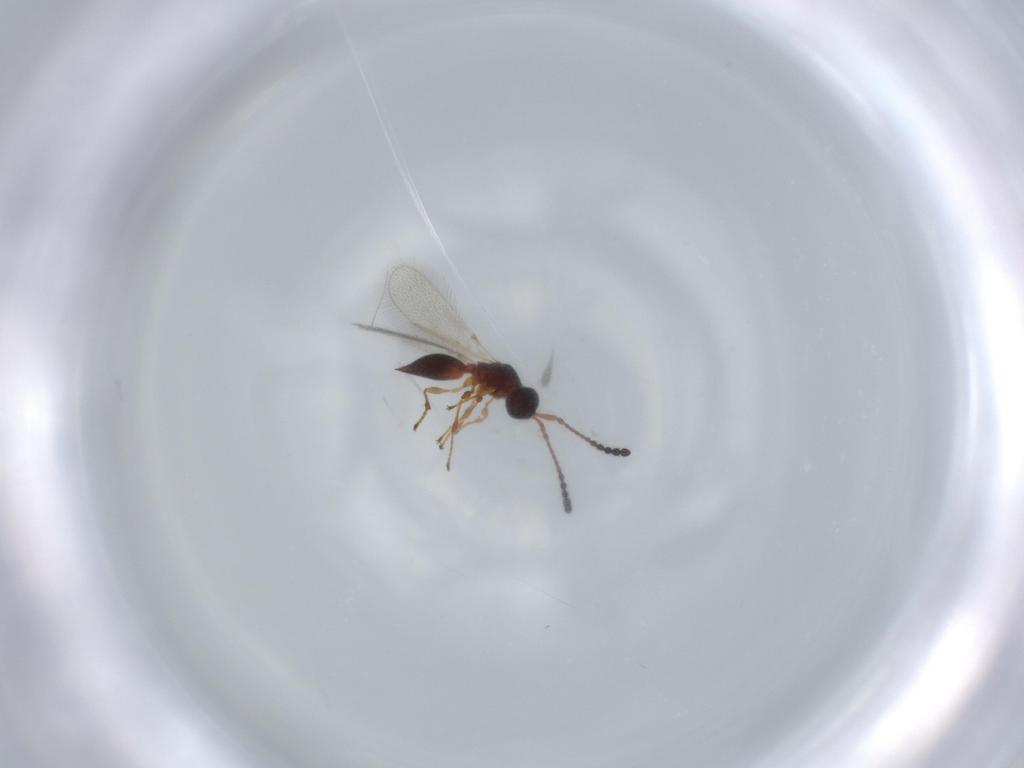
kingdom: Animalia
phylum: Arthropoda
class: Insecta
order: Hymenoptera
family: Diapriidae
